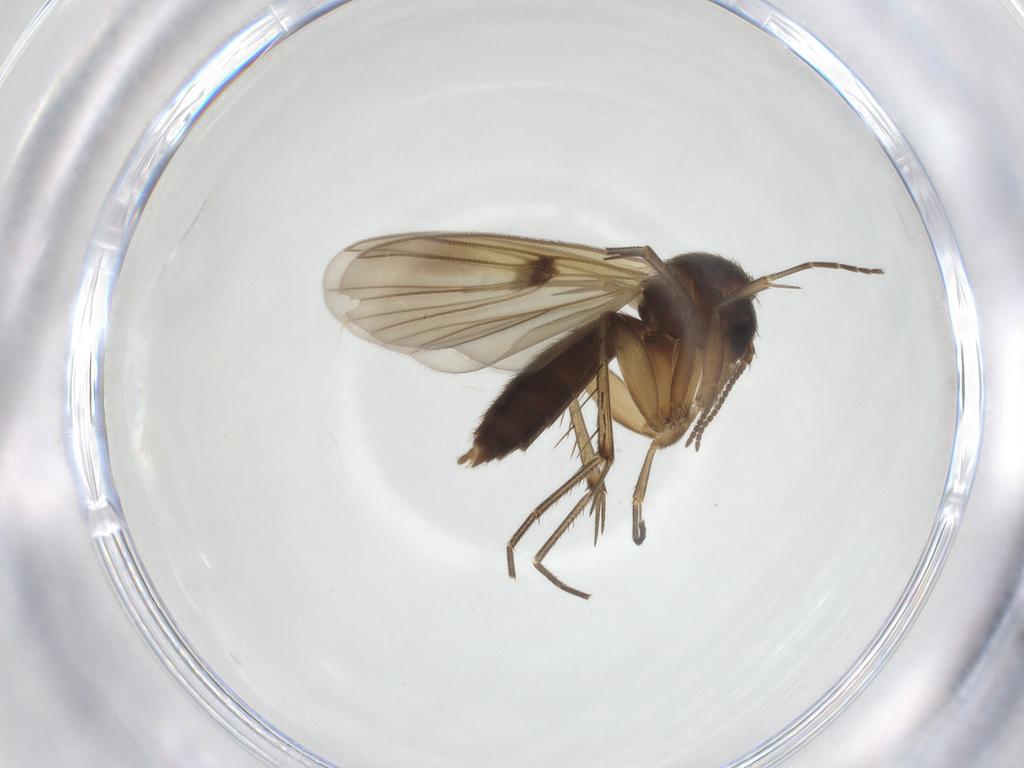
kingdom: Animalia
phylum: Arthropoda
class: Insecta
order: Diptera
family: Mycetophilidae
